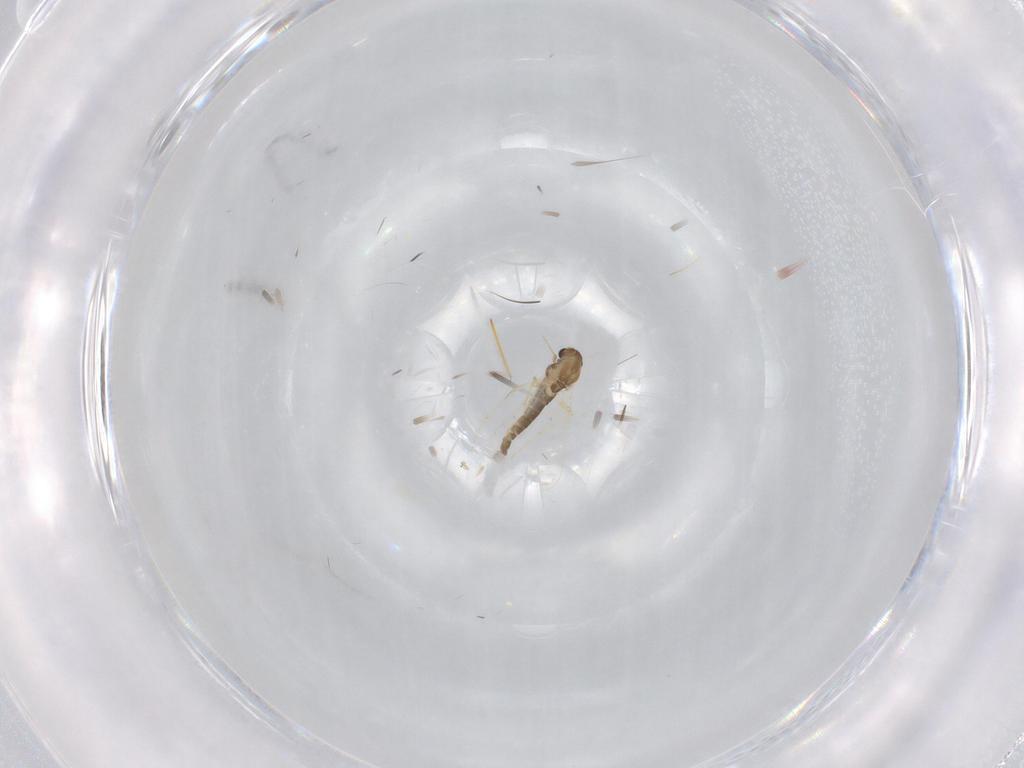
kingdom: Animalia
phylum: Arthropoda
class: Insecta
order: Diptera
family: Chironomidae
